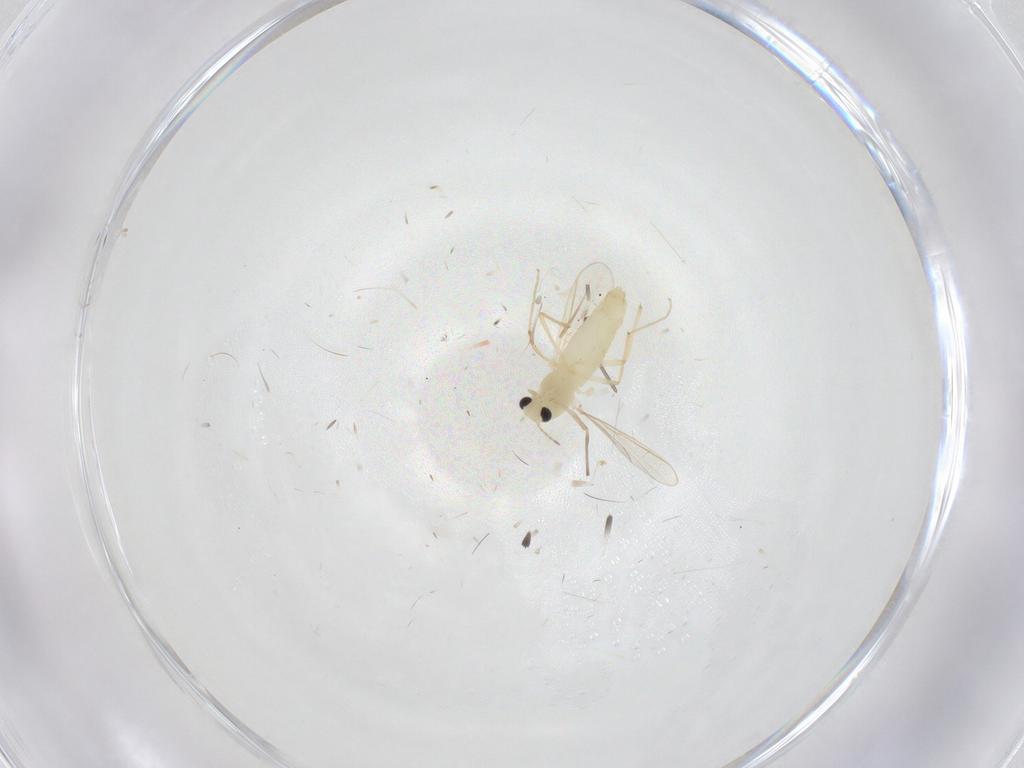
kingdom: Animalia
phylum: Arthropoda
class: Insecta
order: Diptera
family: Chironomidae
